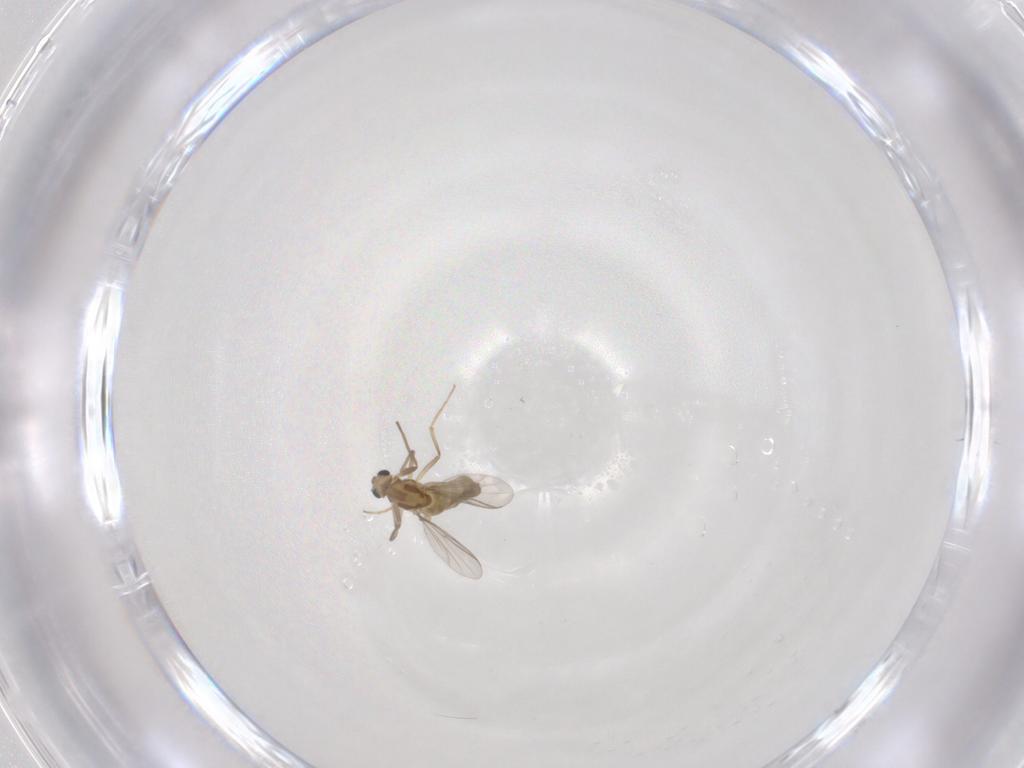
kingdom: Animalia
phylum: Arthropoda
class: Insecta
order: Diptera
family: Chironomidae
